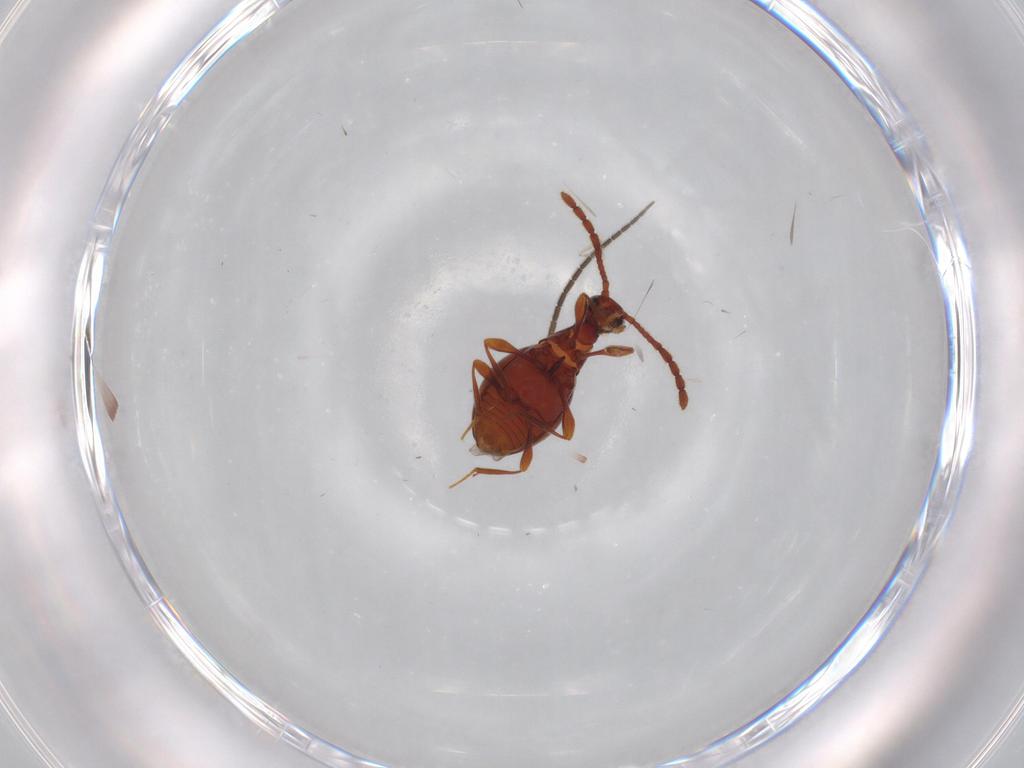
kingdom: Animalia
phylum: Arthropoda
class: Insecta
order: Coleoptera
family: Staphylinidae
